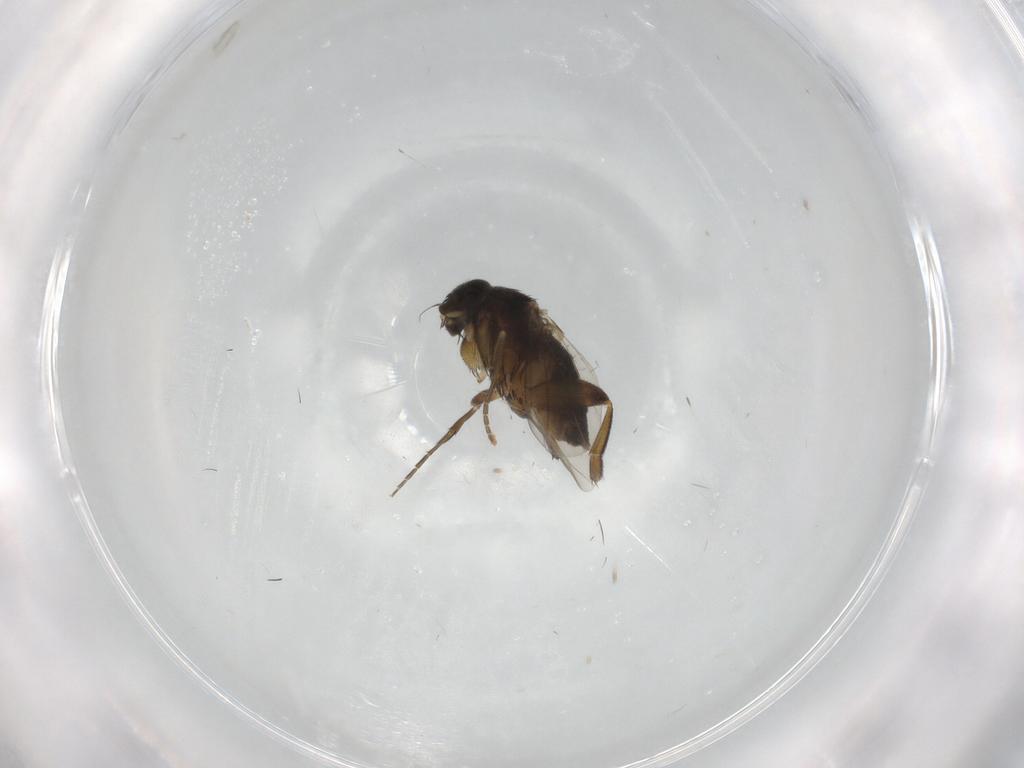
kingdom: Animalia
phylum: Arthropoda
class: Insecta
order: Diptera
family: Phoridae
